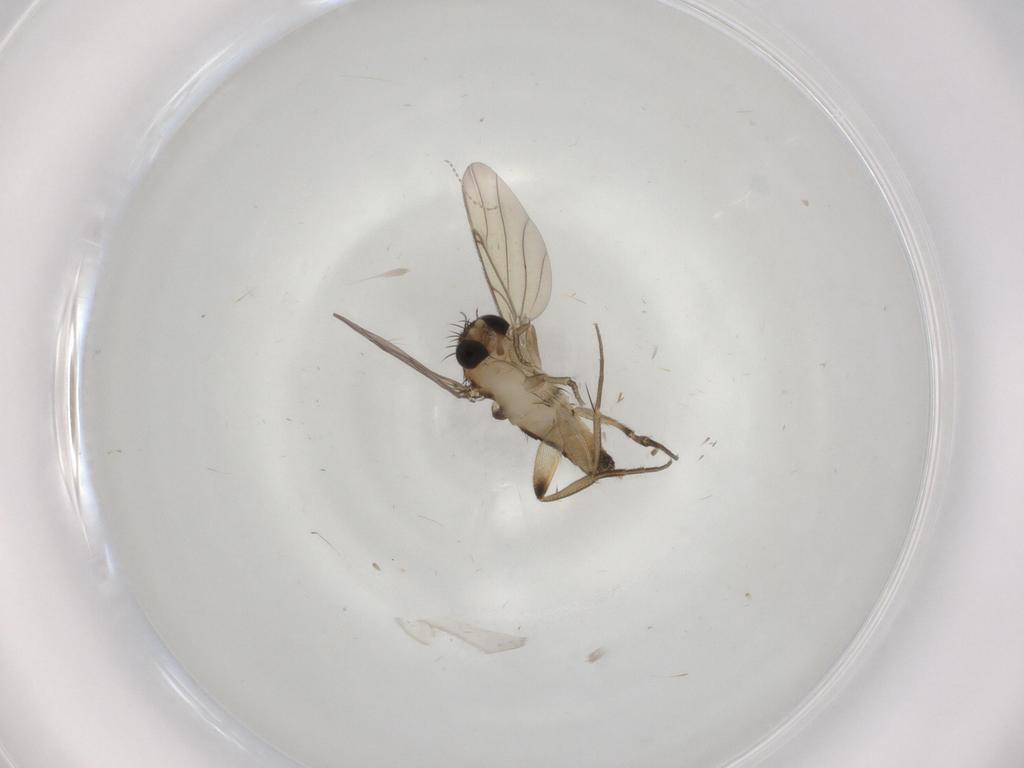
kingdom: Animalia
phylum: Arthropoda
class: Insecta
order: Diptera
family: Phoridae
